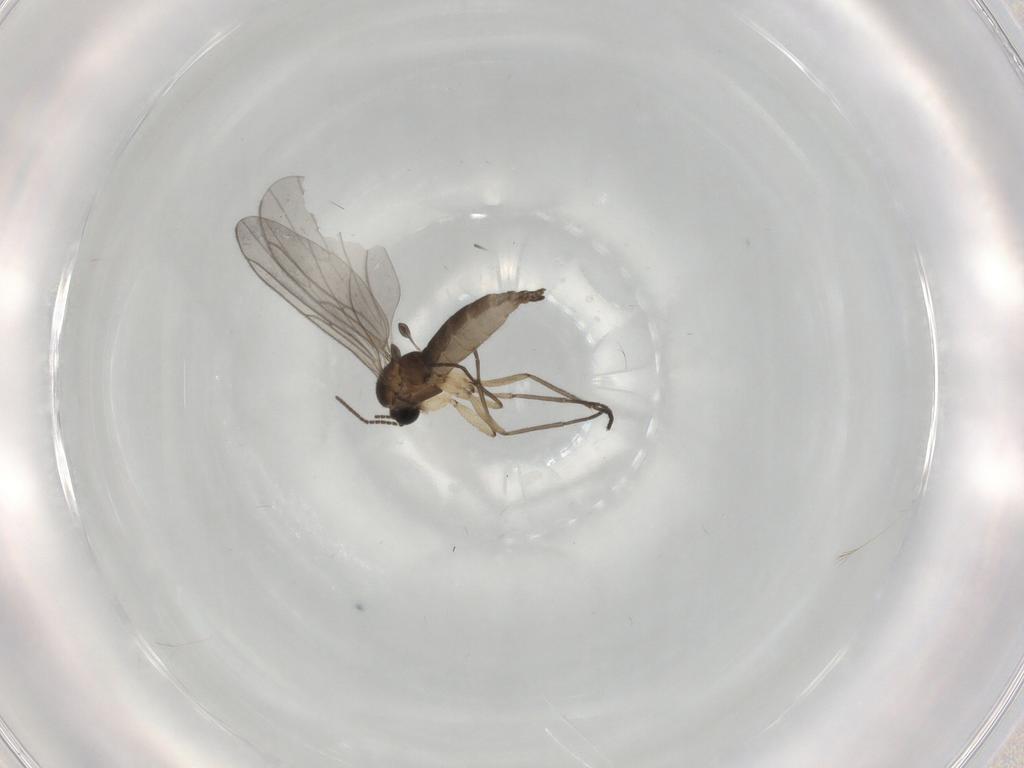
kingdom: Animalia
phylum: Arthropoda
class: Insecta
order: Diptera
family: Sciaridae
